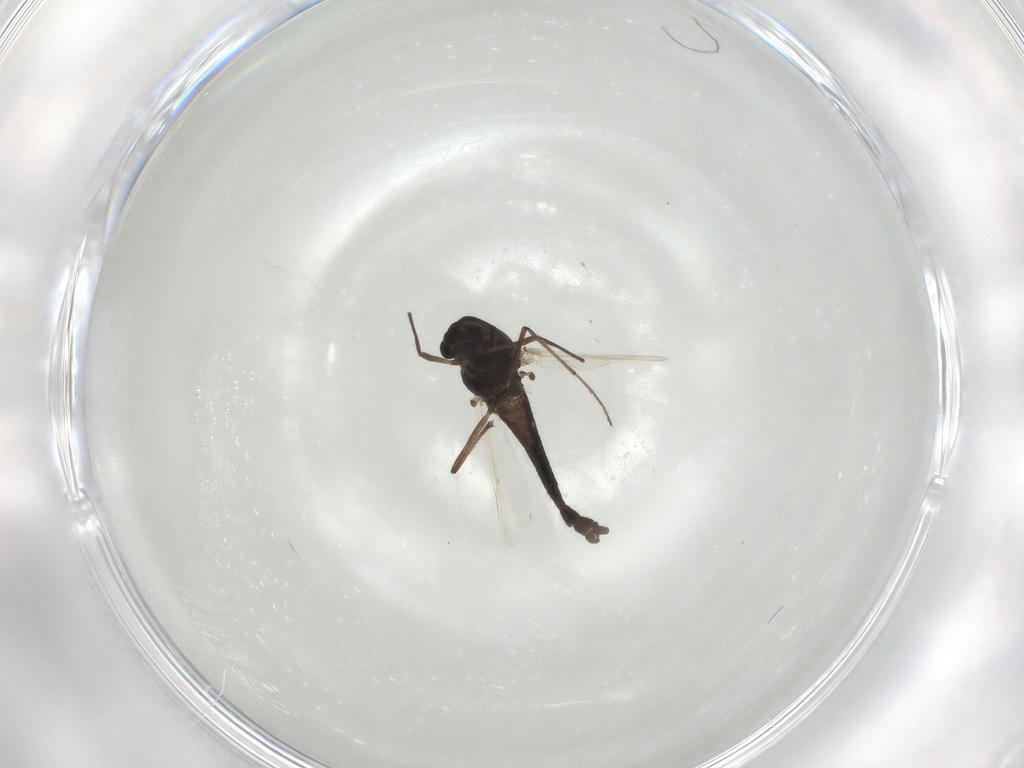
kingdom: Animalia
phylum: Arthropoda
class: Insecta
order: Diptera
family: Chironomidae
